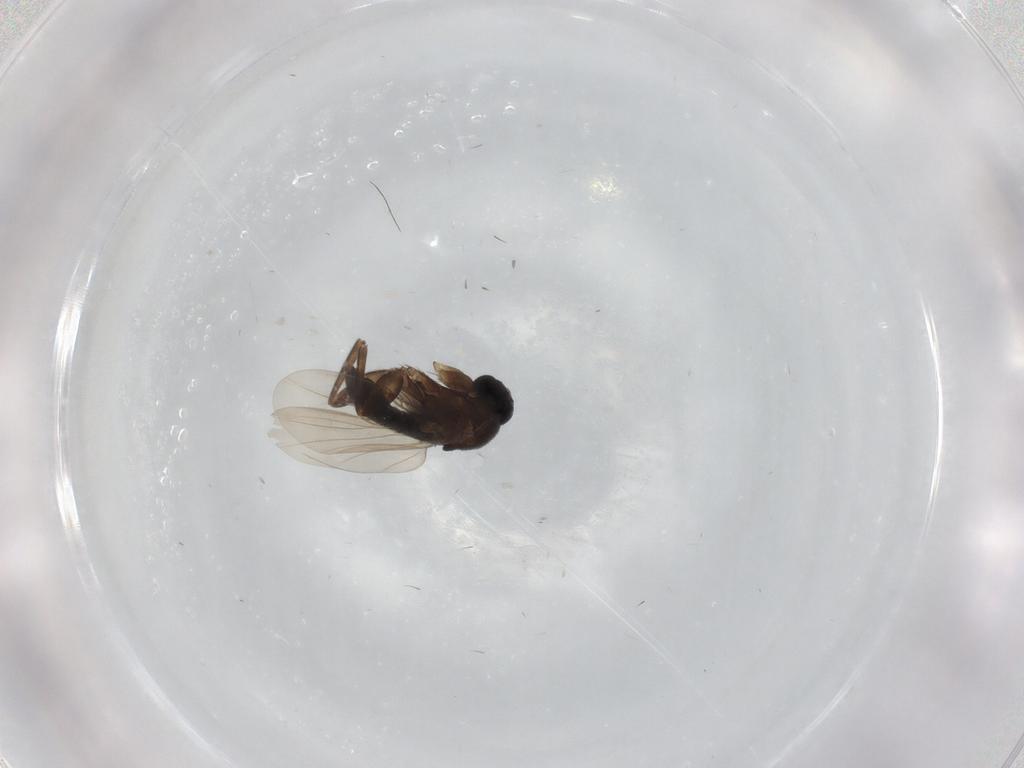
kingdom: Animalia
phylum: Arthropoda
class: Insecta
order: Diptera
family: Phoridae
